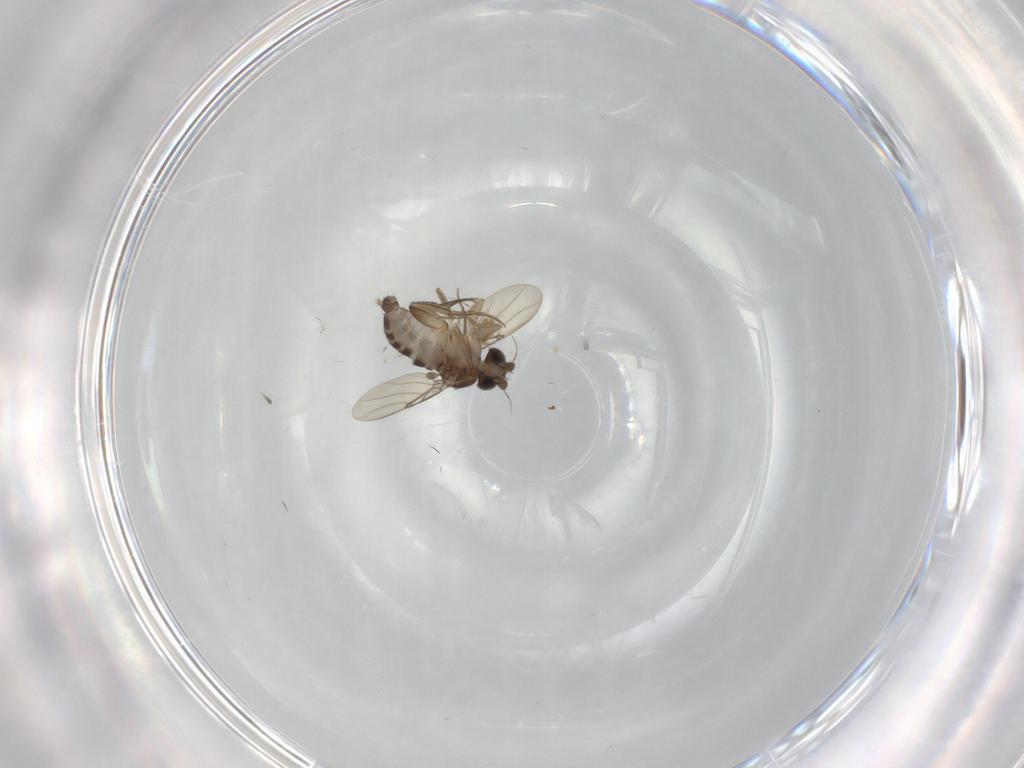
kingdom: Animalia
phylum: Arthropoda
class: Insecta
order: Diptera
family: Phoridae
